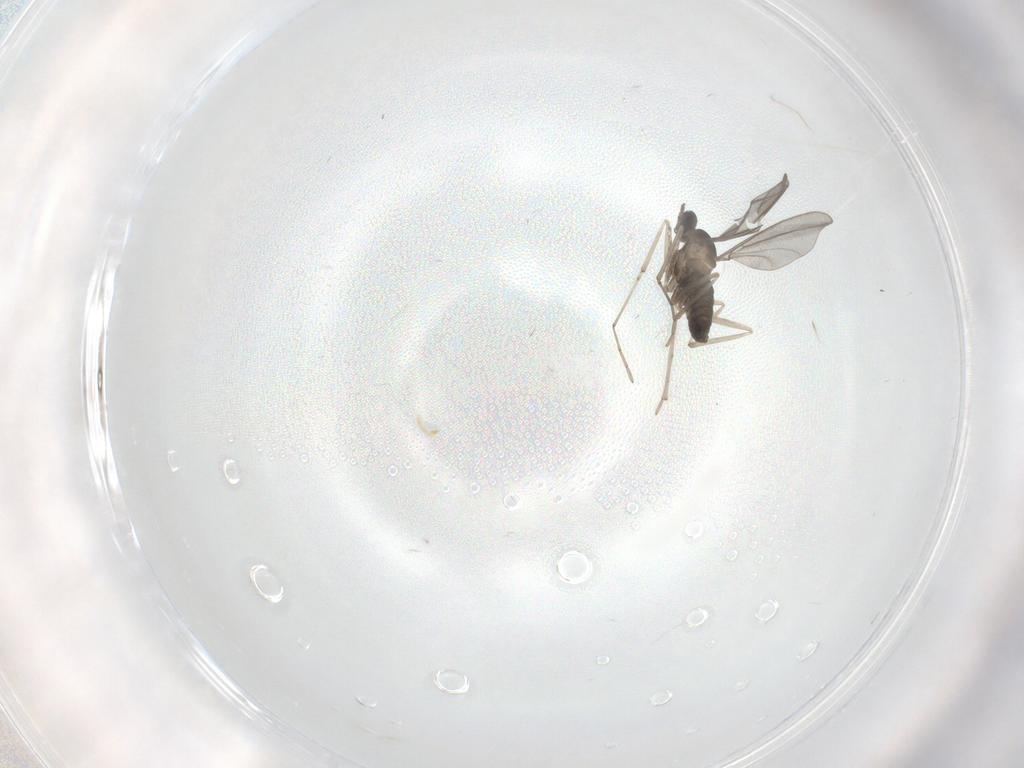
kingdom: Animalia
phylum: Arthropoda
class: Insecta
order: Diptera
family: Cecidomyiidae
